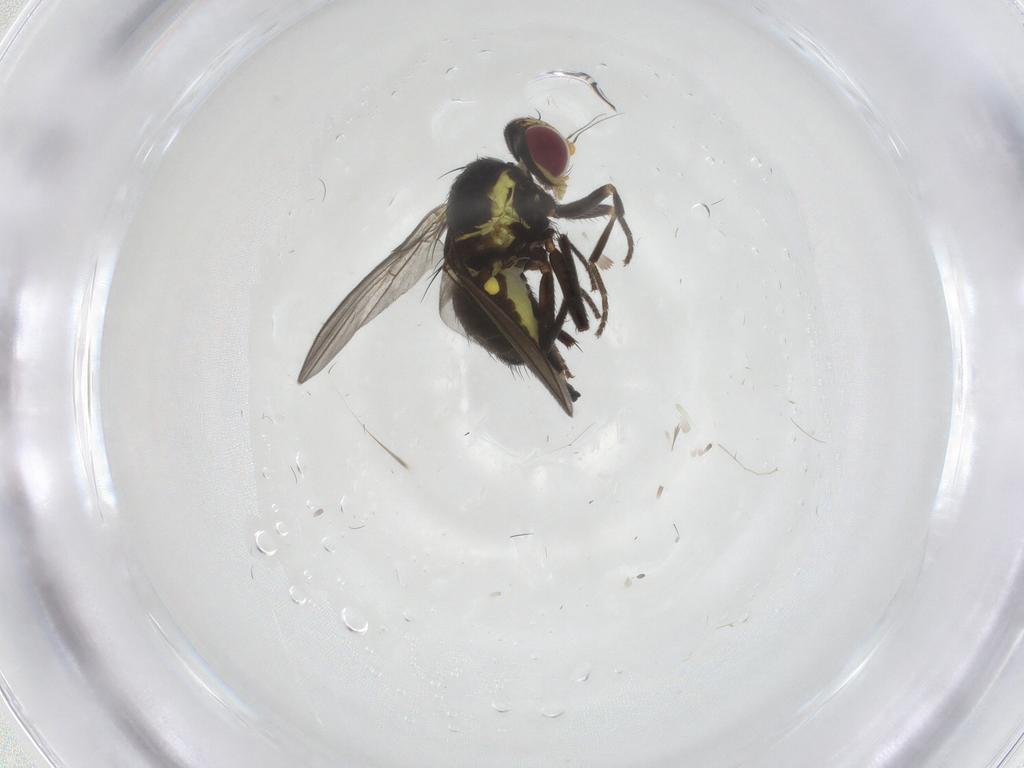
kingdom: Animalia
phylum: Arthropoda
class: Insecta
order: Diptera
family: Agromyzidae
